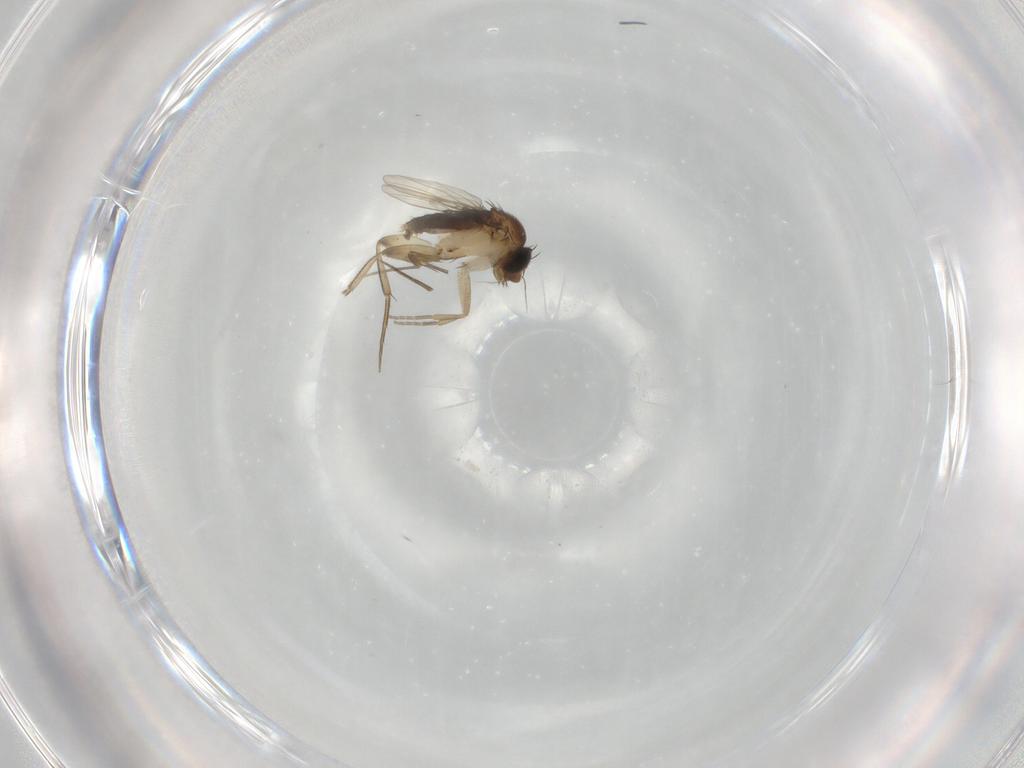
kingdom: Animalia
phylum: Arthropoda
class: Insecta
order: Diptera
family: Phoridae
